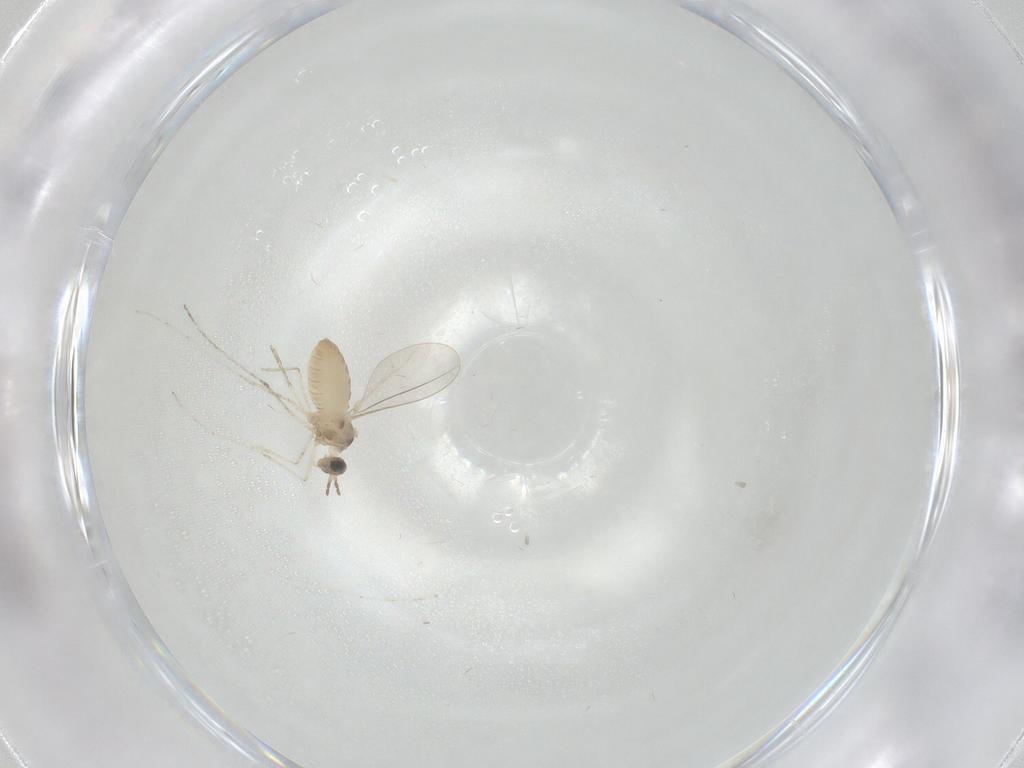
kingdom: Animalia
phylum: Arthropoda
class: Insecta
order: Diptera
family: Cecidomyiidae
